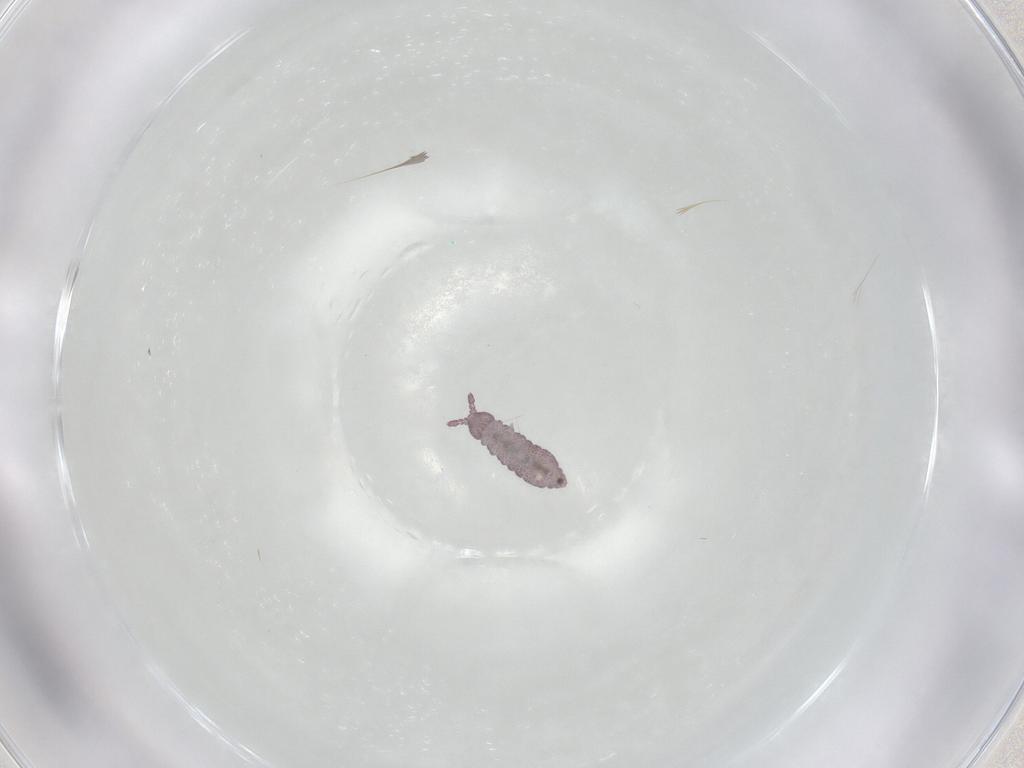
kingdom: Animalia
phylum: Arthropoda
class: Collembola
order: Poduromorpha
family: Hypogastruridae
